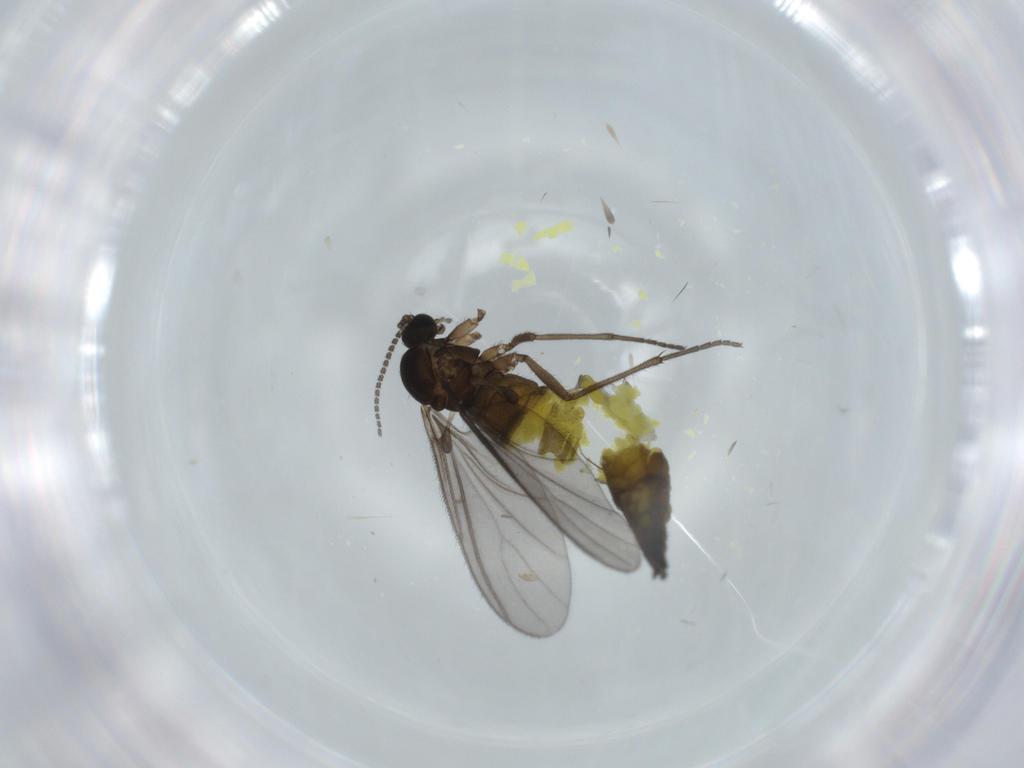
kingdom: Animalia
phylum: Arthropoda
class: Insecta
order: Diptera
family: Sciaridae
